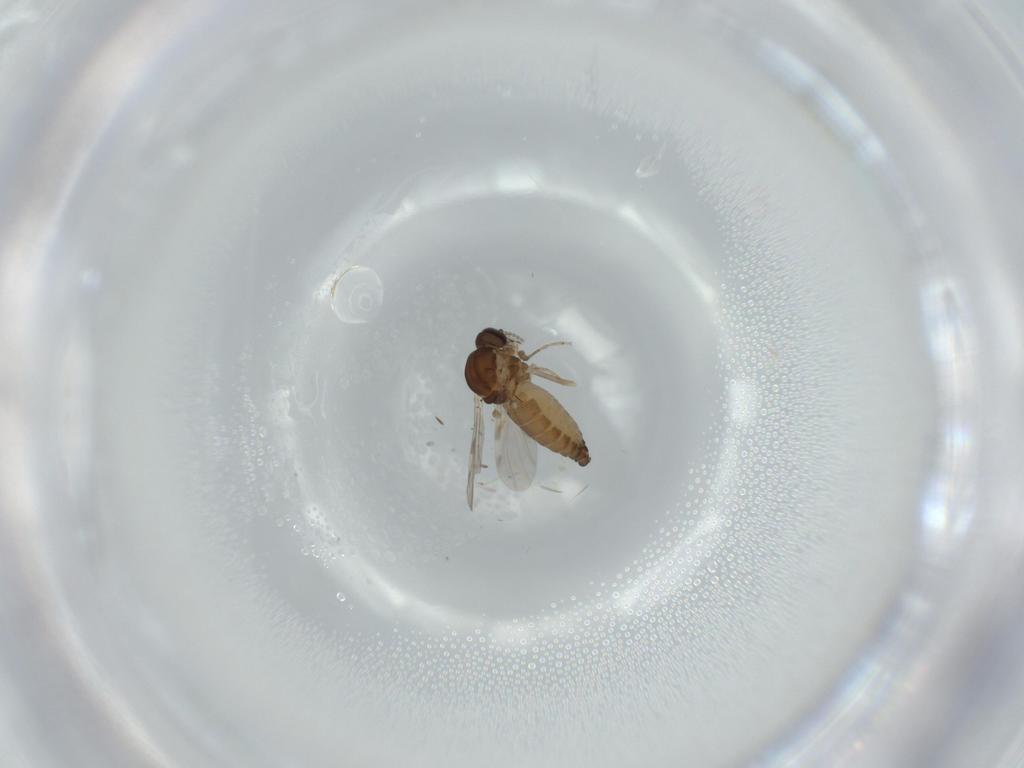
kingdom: Animalia
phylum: Arthropoda
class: Insecta
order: Diptera
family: Ceratopogonidae
